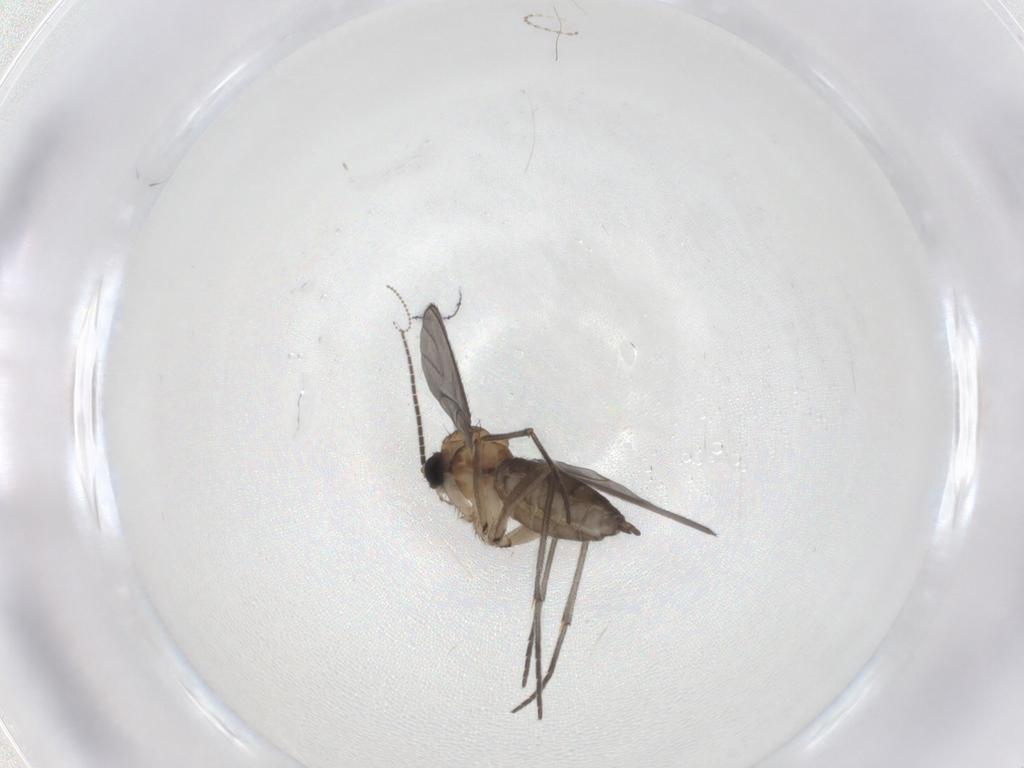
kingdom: Animalia
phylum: Arthropoda
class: Insecta
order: Diptera
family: Sciaridae
